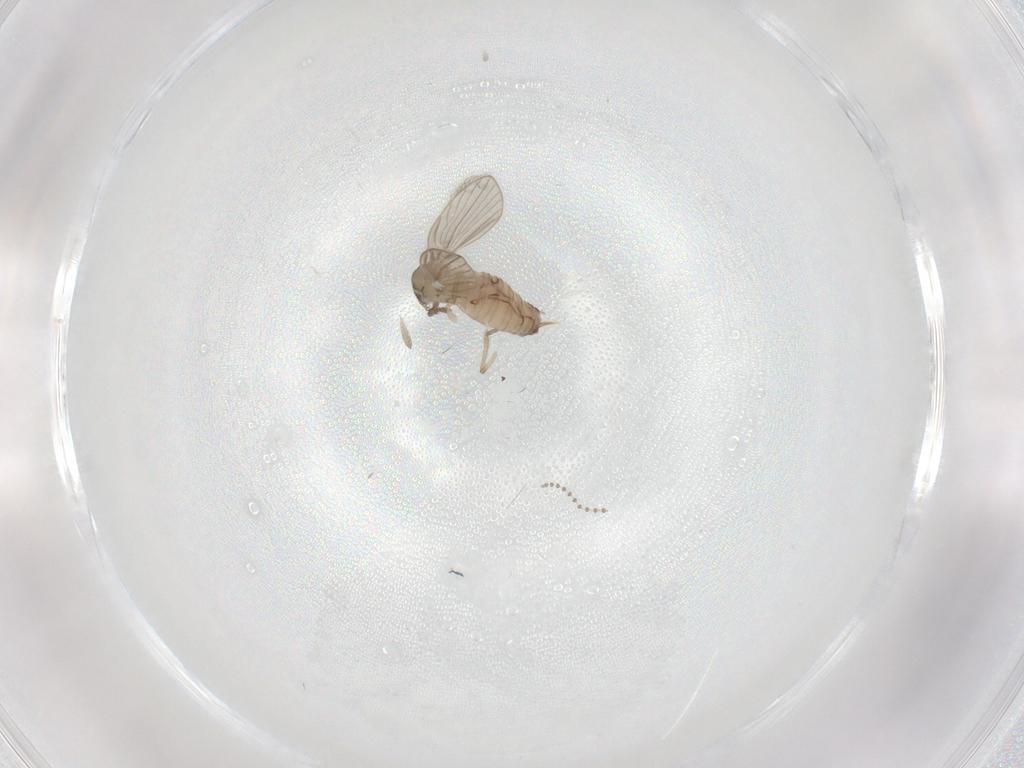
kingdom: Animalia
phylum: Arthropoda
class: Insecta
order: Diptera
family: Psychodidae
